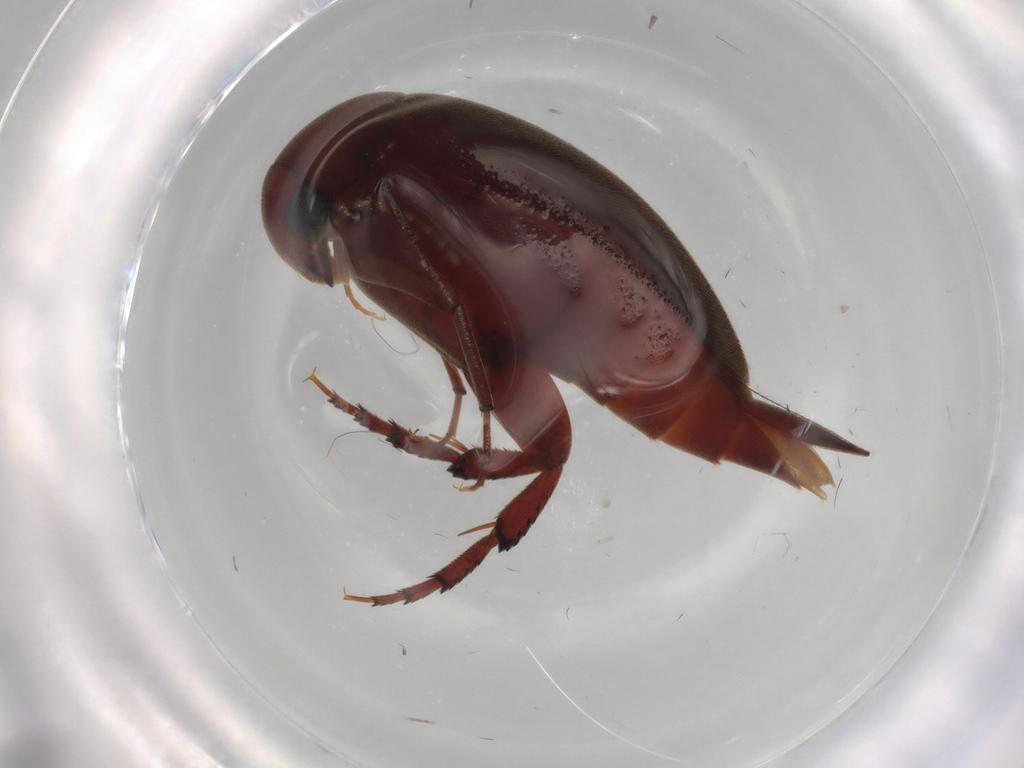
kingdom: Animalia
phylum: Arthropoda
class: Insecta
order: Coleoptera
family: Mordellidae
